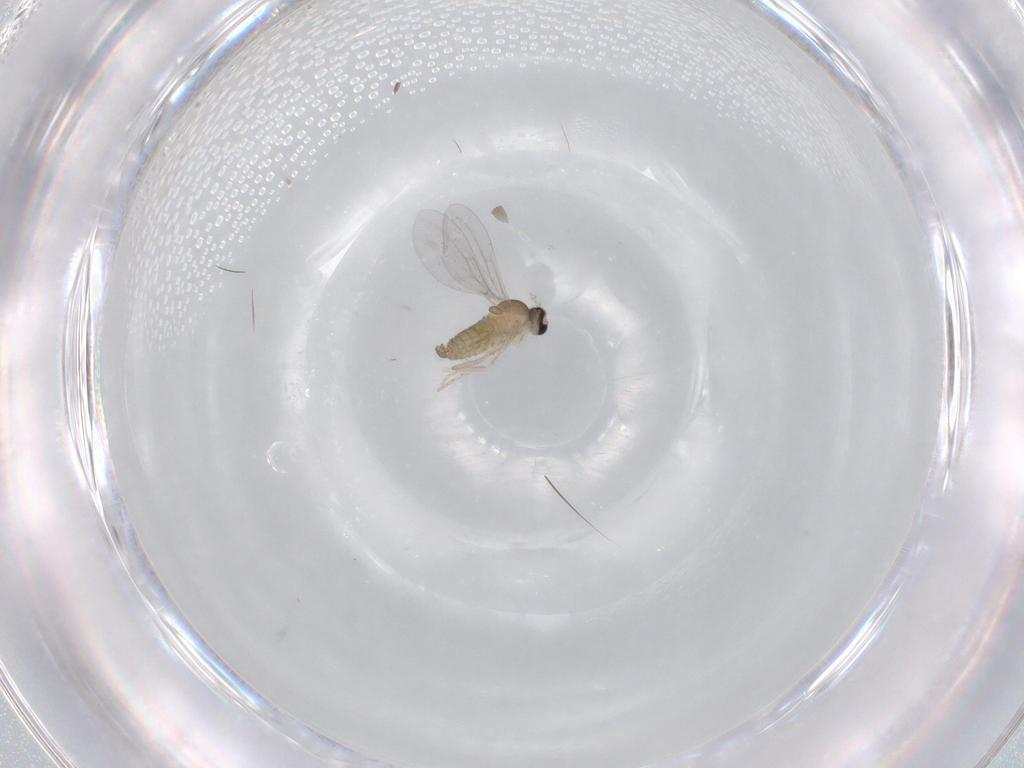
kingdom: Animalia
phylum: Arthropoda
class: Insecta
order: Diptera
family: Cecidomyiidae
